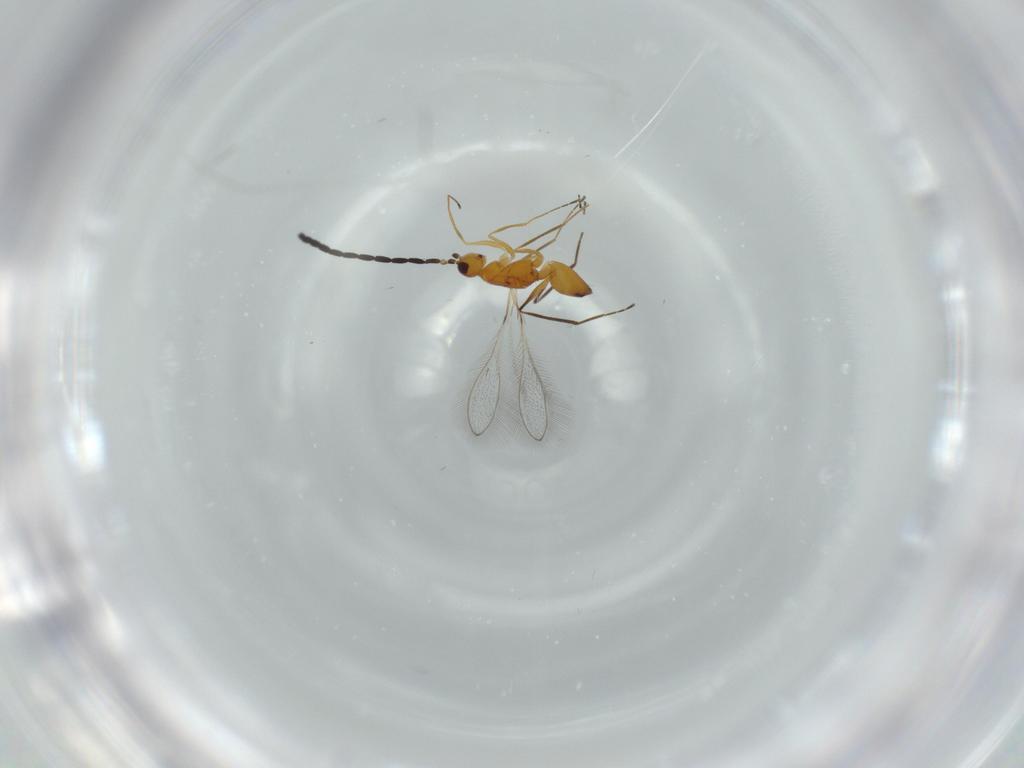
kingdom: Animalia
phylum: Arthropoda
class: Insecta
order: Hymenoptera
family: Mymaridae
